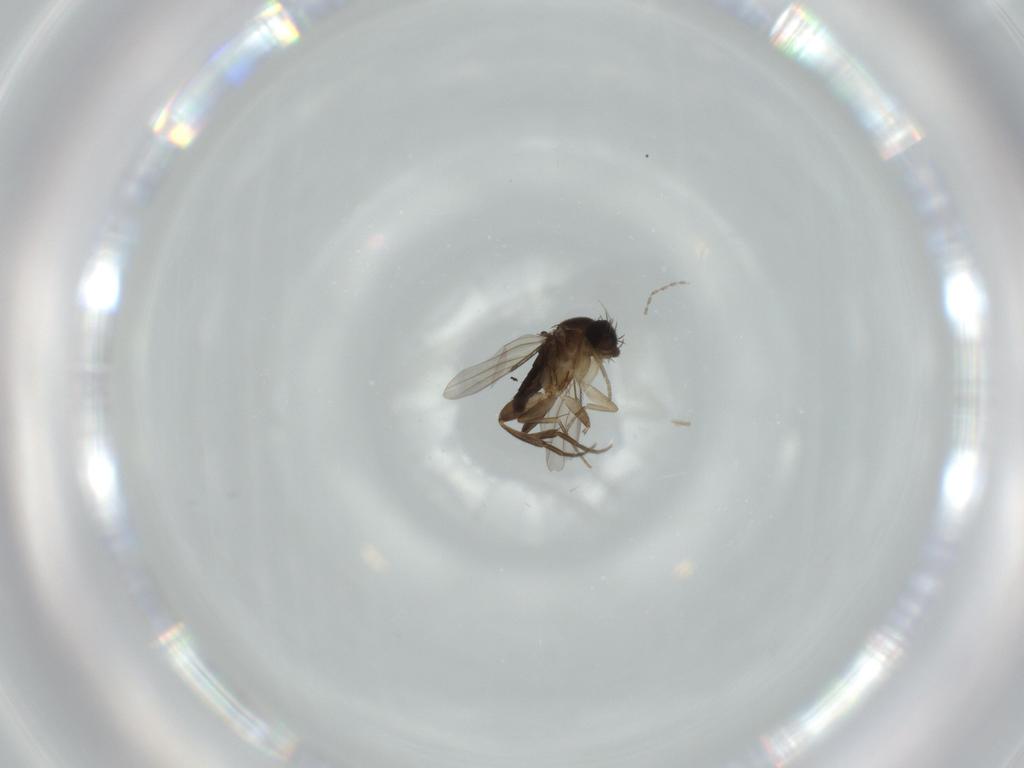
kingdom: Animalia
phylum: Arthropoda
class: Insecta
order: Diptera
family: Phoridae
